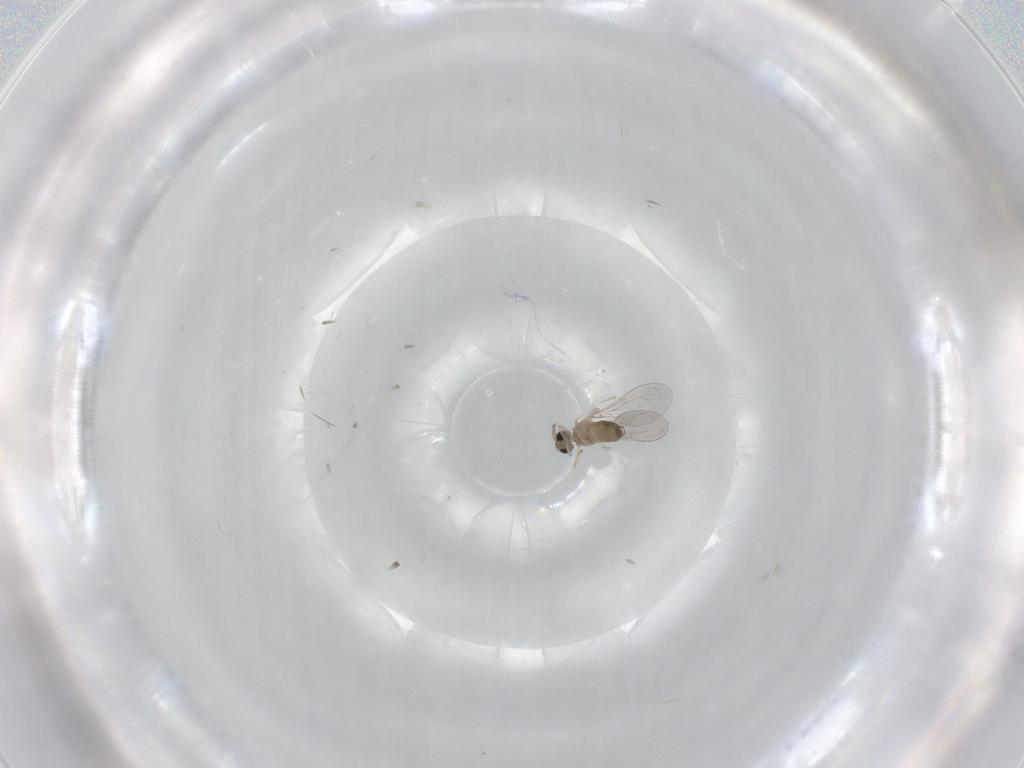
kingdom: Animalia
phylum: Arthropoda
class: Insecta
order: Diptera
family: Cecidomyiidae
